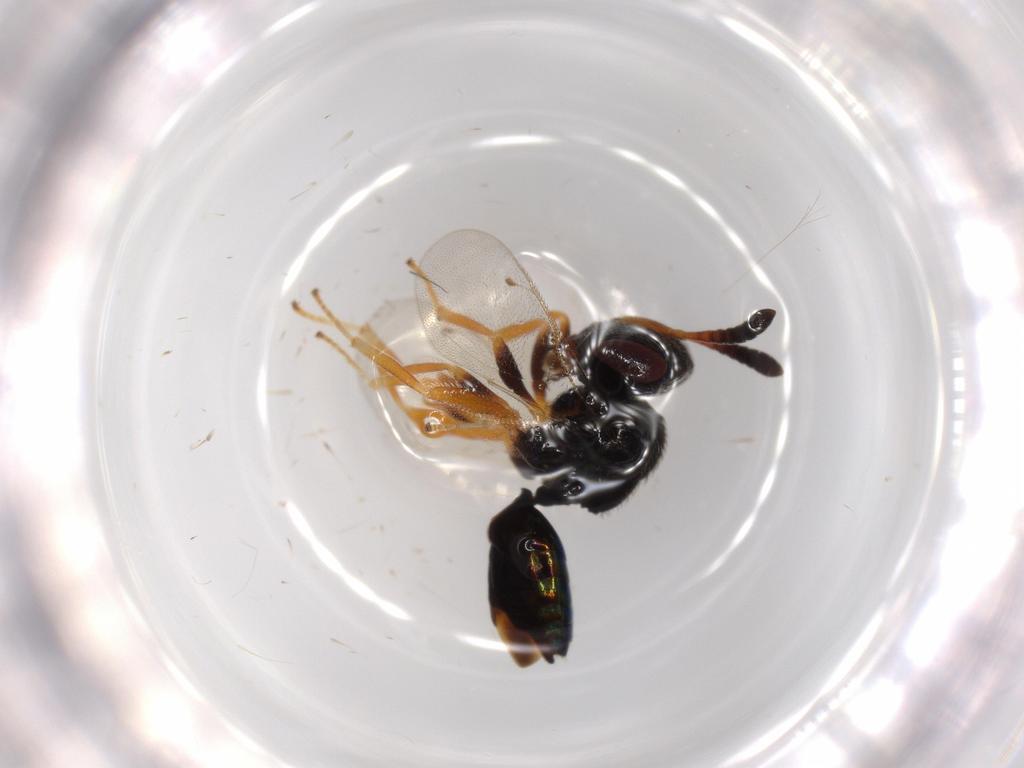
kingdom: Animalia
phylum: Arthropoda
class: Insecta
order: Hymenoptera
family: Agaonidae
